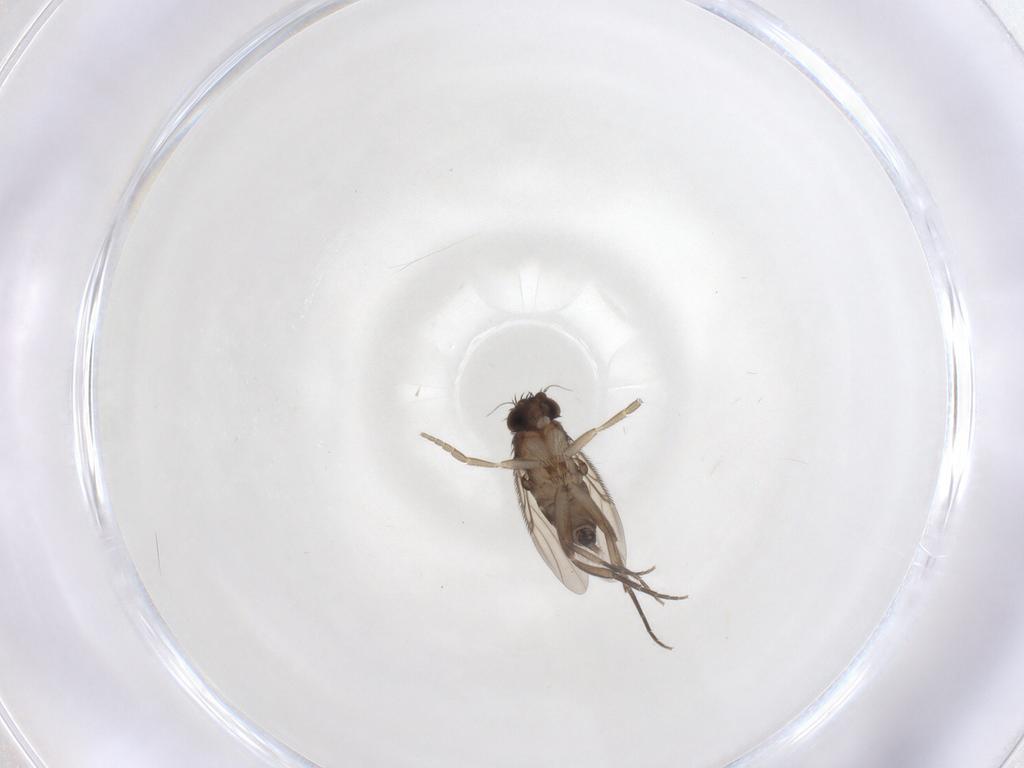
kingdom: Animalia
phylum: Arthropoda
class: Insecta
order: Diptera
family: Phoridae
